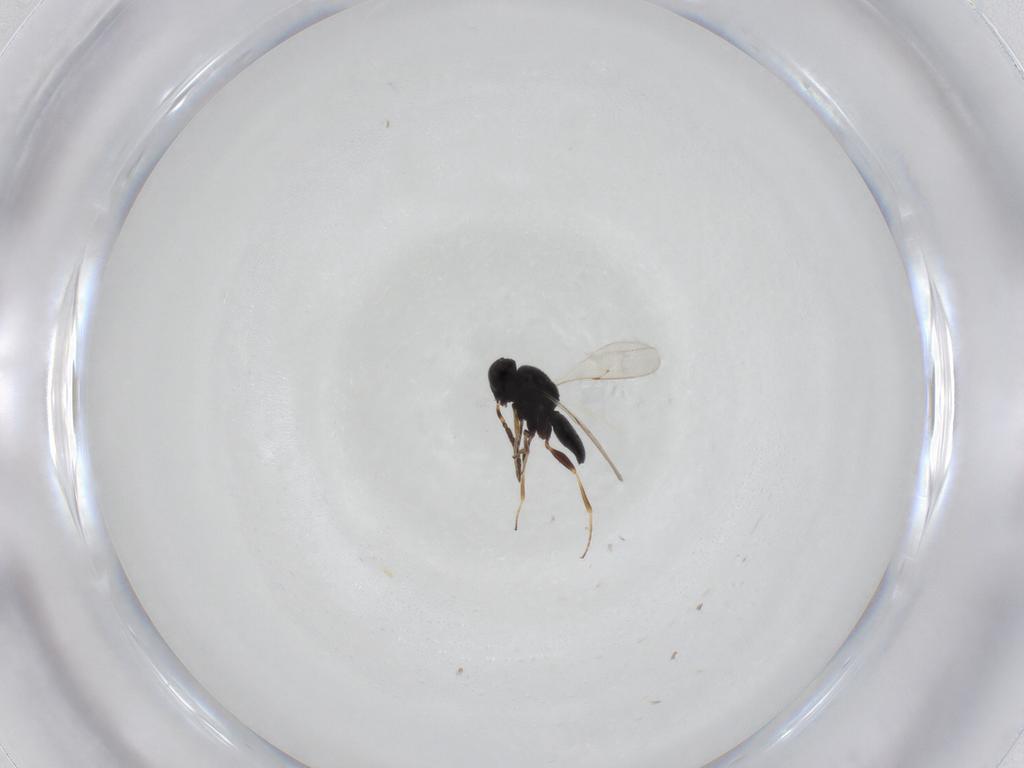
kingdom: Animalia
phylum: Arthropoda
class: Insecta
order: Hymenoptera
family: Scelionidae
